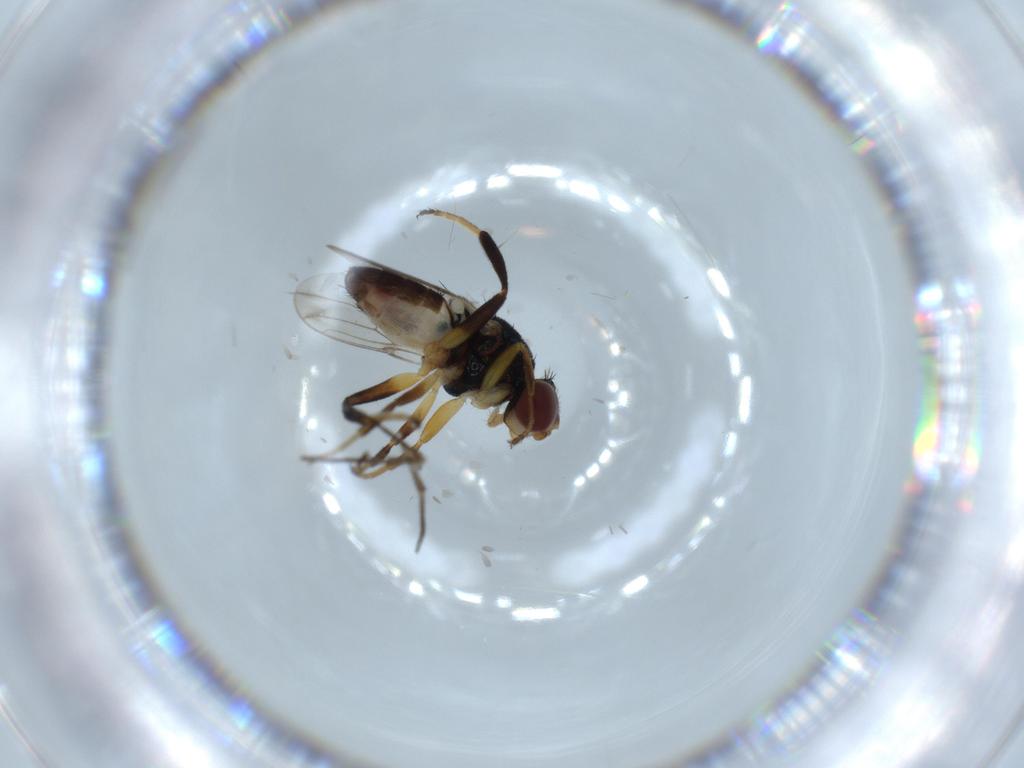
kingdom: Animalia
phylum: Arthropoda
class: Insecta
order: Diptera
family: Chloropidae
